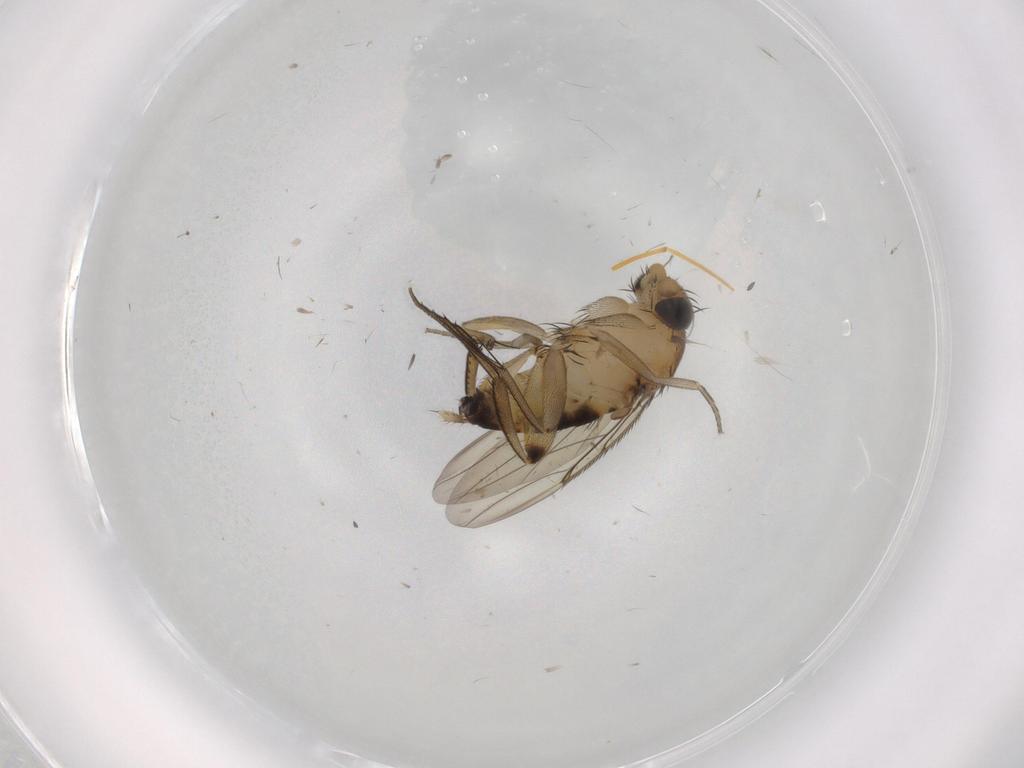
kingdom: Animalia
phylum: Arthropoda
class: Insecta
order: Diptera
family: Phoridae
